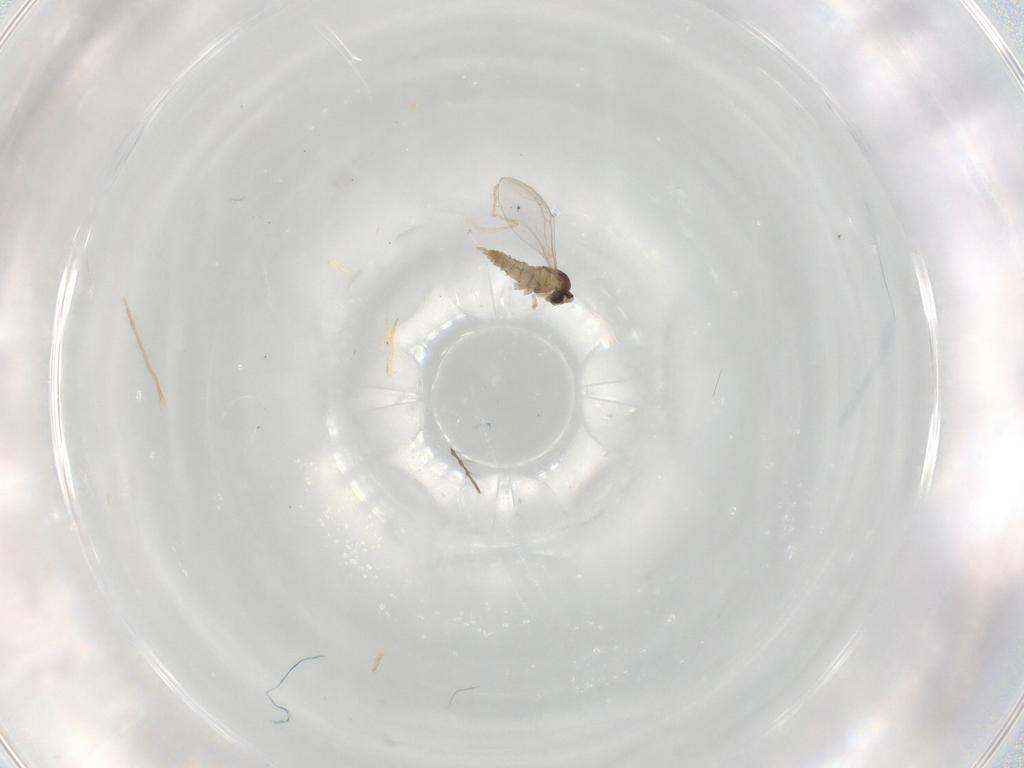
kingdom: Animalia
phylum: Arthropoda
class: Insecta
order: Diptera
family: Cecidomyiidae
